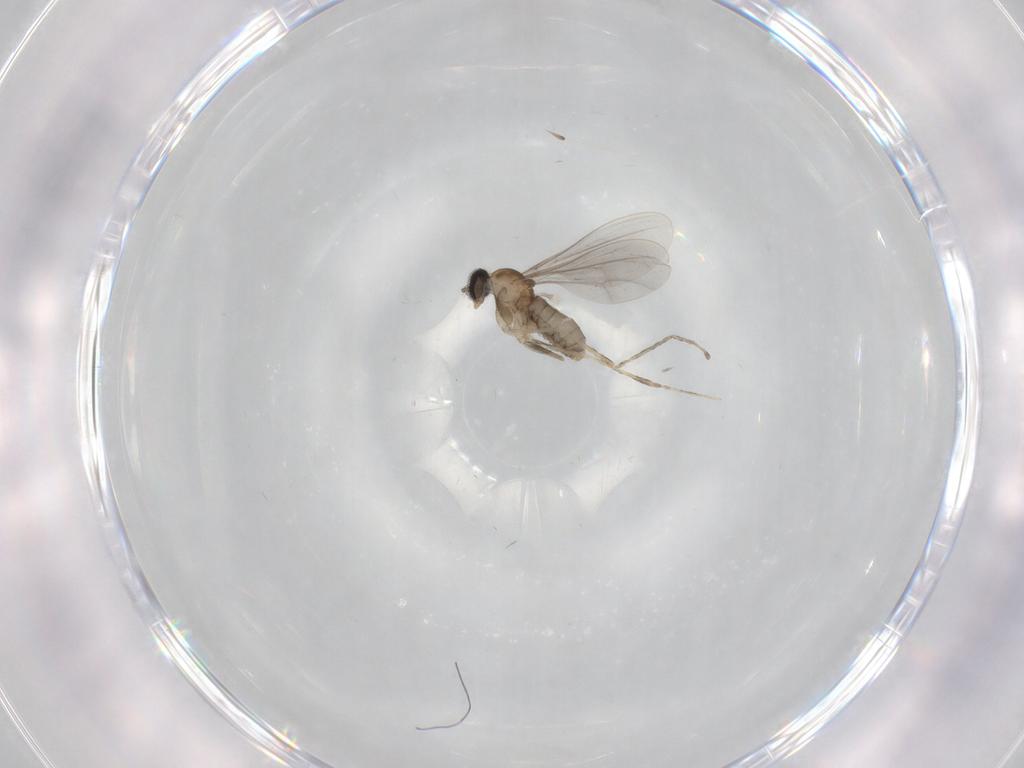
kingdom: Animalia
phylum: Arthropoda
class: Insecta
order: Diptera
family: Cecidomyiidae
